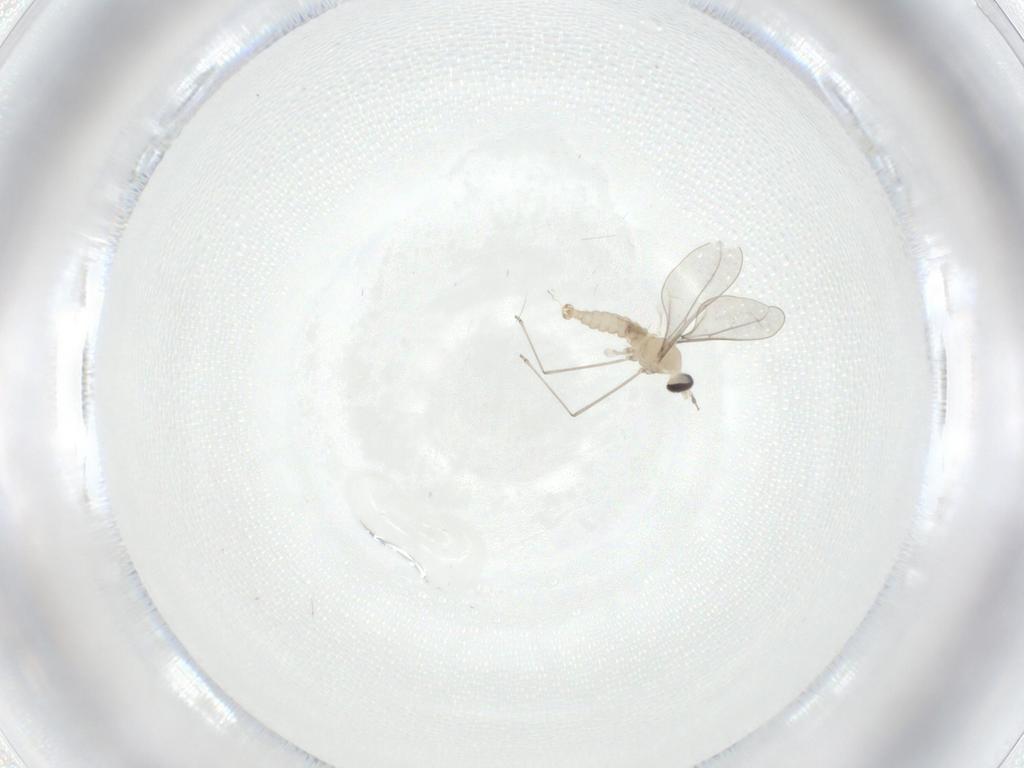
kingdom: Animalia
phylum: Arthropoda
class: Insecta
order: Diptera
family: Cecidomyiidae
